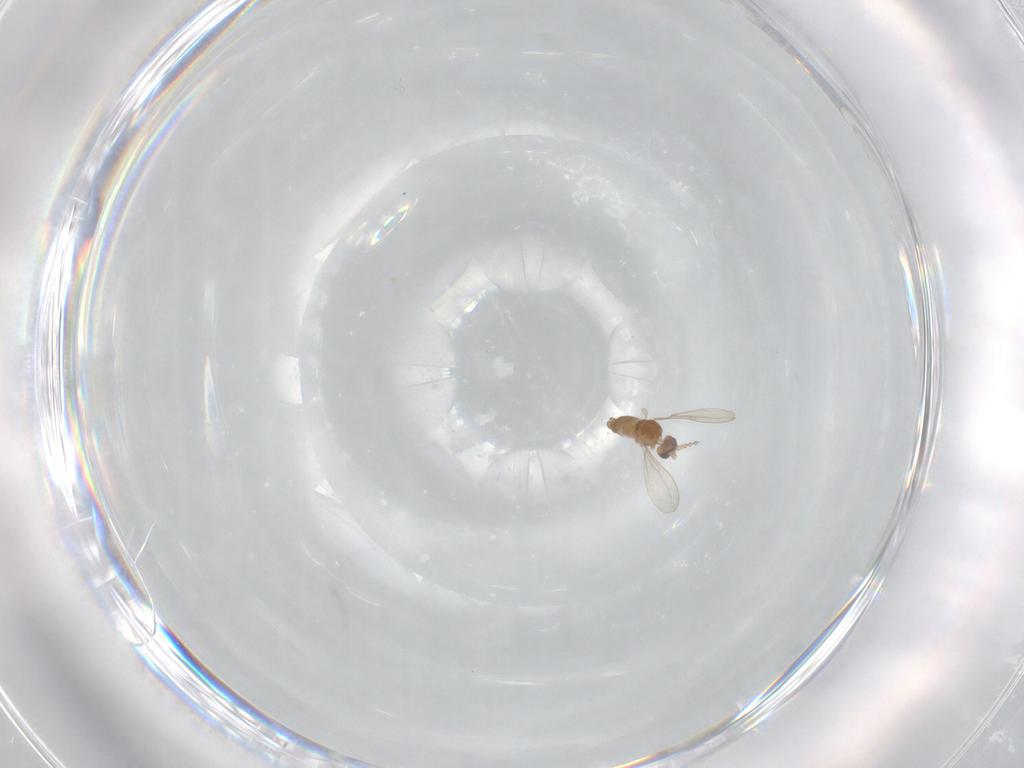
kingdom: Animalia
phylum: Arthropoda
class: Insecta
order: Diptera
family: Cecidomyiidae
